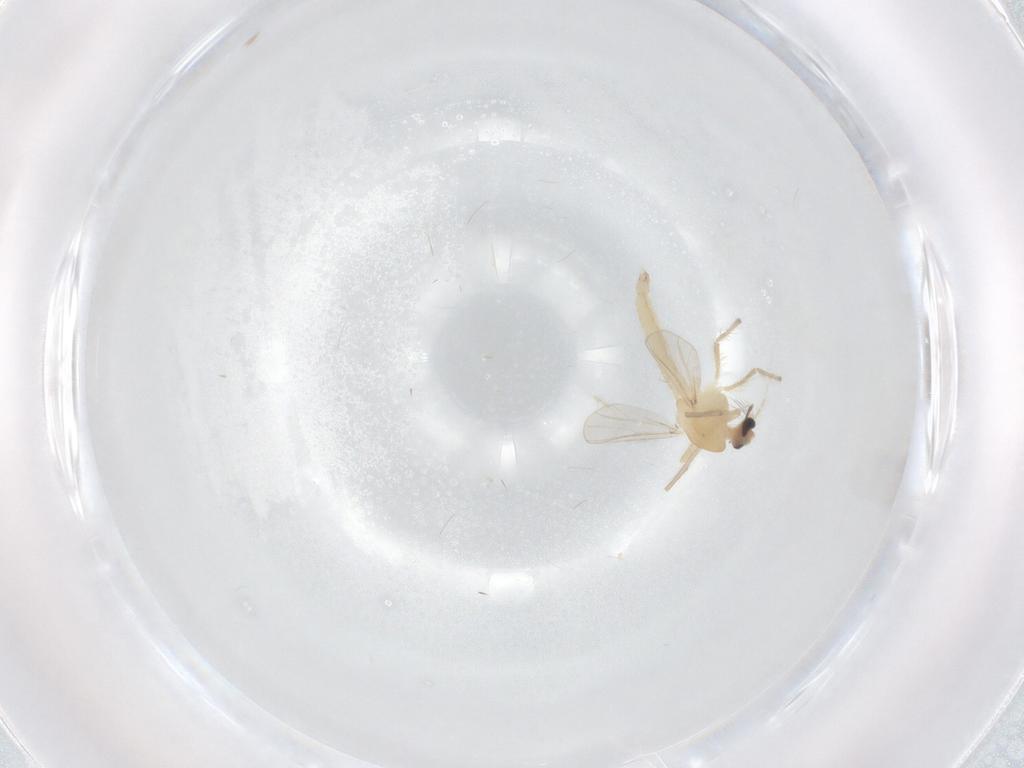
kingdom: Animalia
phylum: Arthropoda
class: Insecta
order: Diptera
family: Chironomidae
